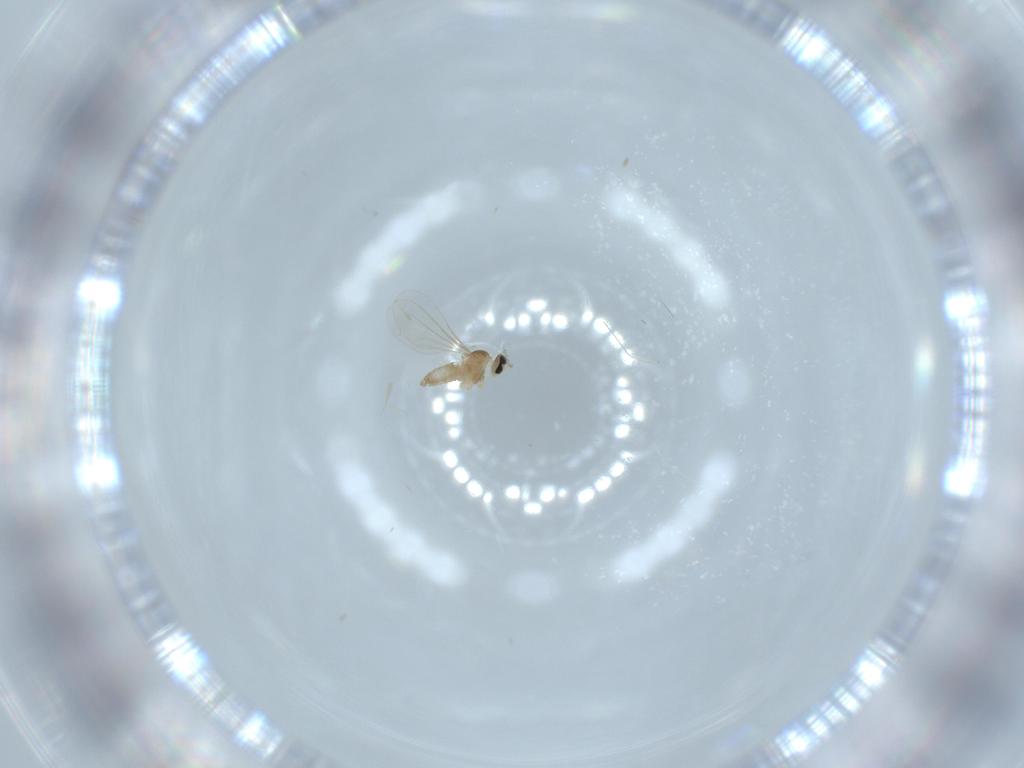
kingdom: Animalia
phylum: Arthropoda
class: Insecta
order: Diptera
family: Cecidomyiidae
